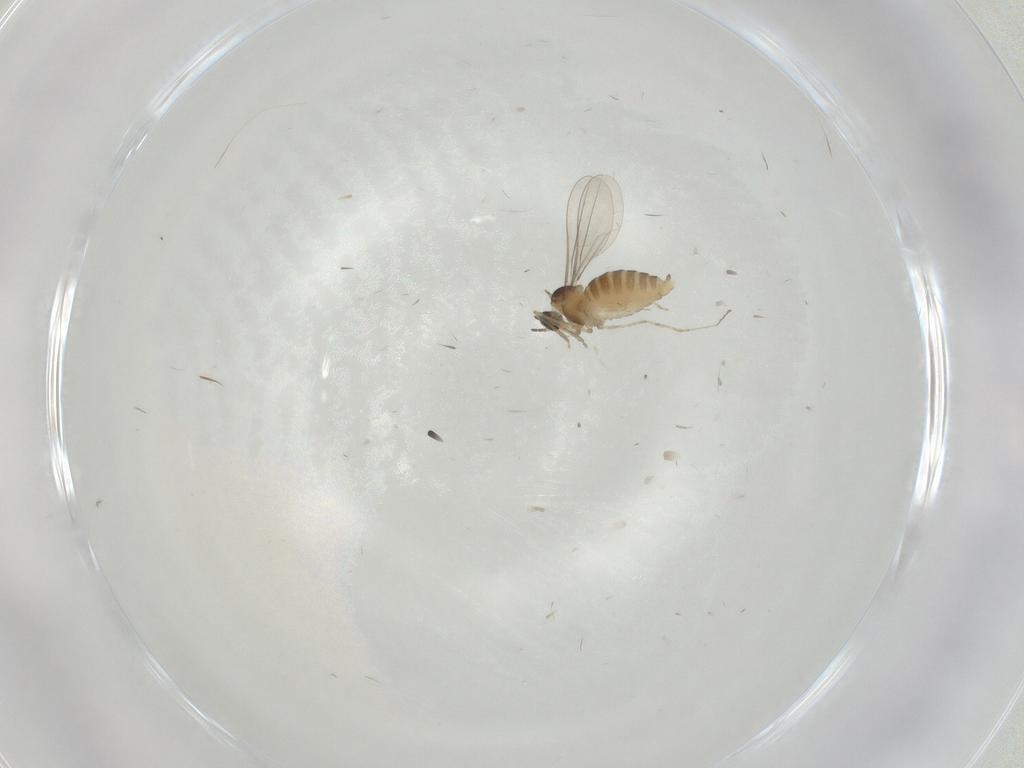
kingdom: Animalia
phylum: Arthropoda
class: Insecta
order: Diptera
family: Cecidomyiidae
